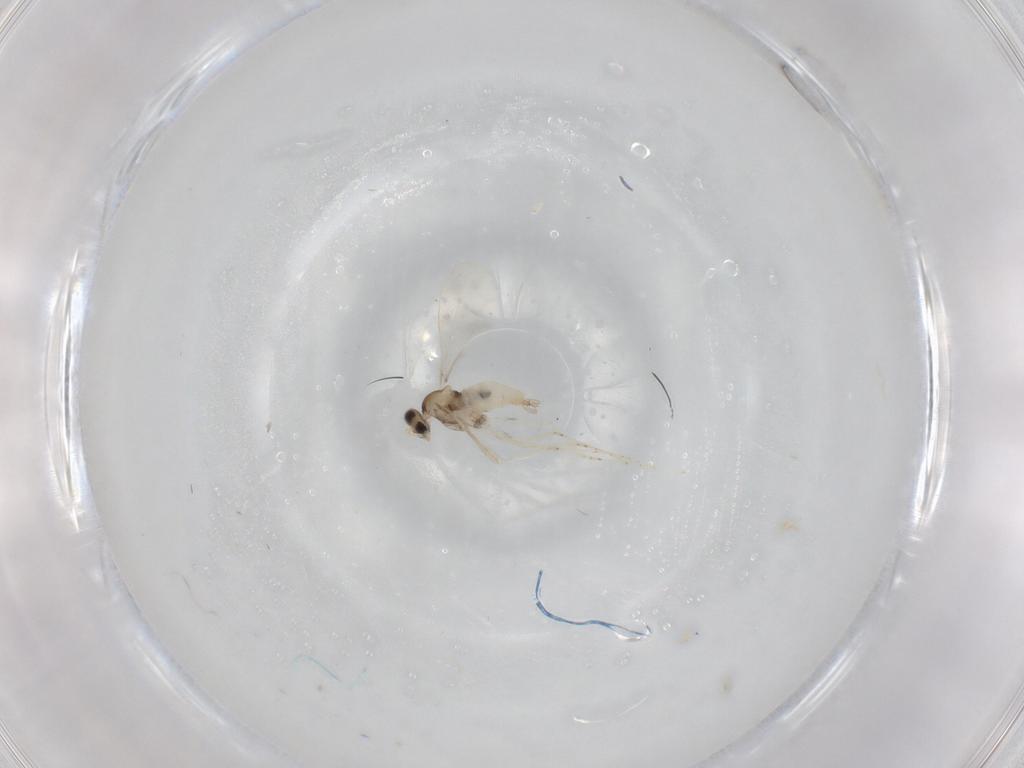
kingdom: Animalia
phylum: Arthropoda
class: Insecta
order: Diptera
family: Cecidomyiidae
